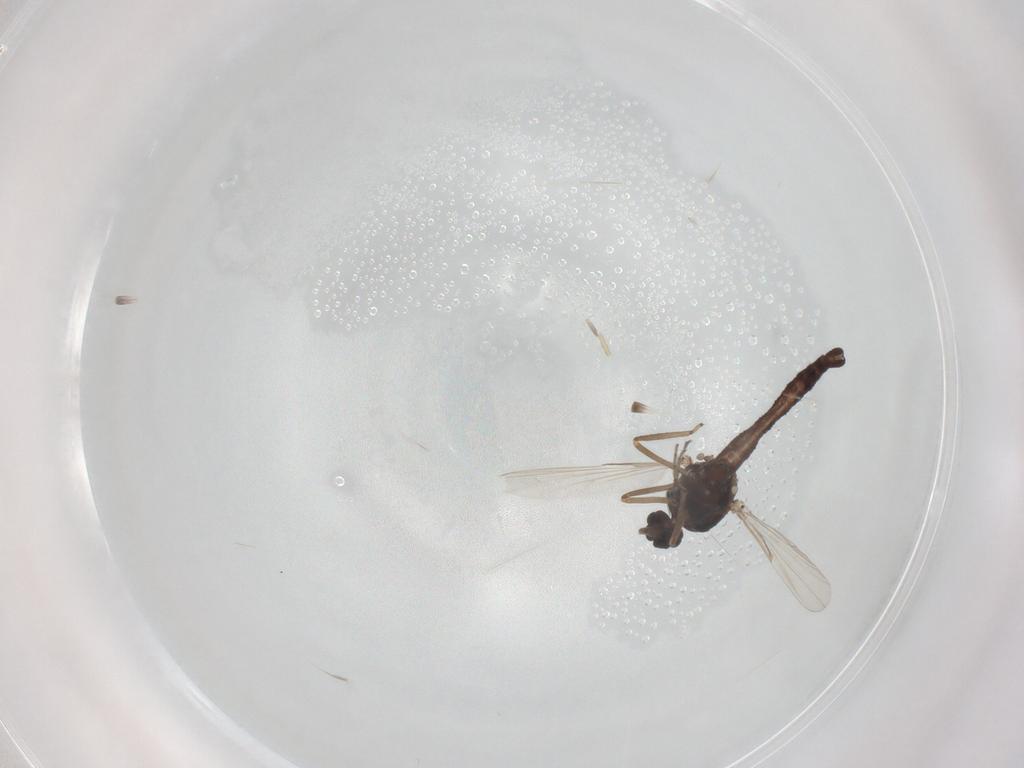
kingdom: Animalia
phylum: Arthropoda
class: Insecta
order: Diptera
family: Ceratopogonidae
